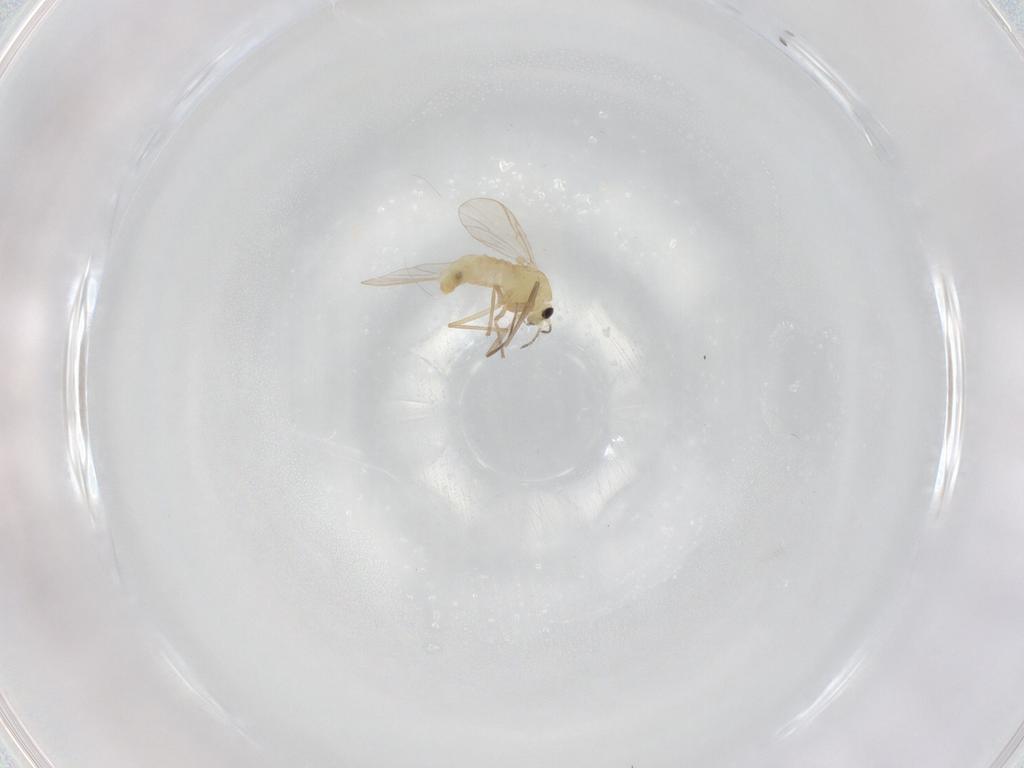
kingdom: Animalia
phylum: Arthropoda
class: Insecta
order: Diptera
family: Chironomidae
